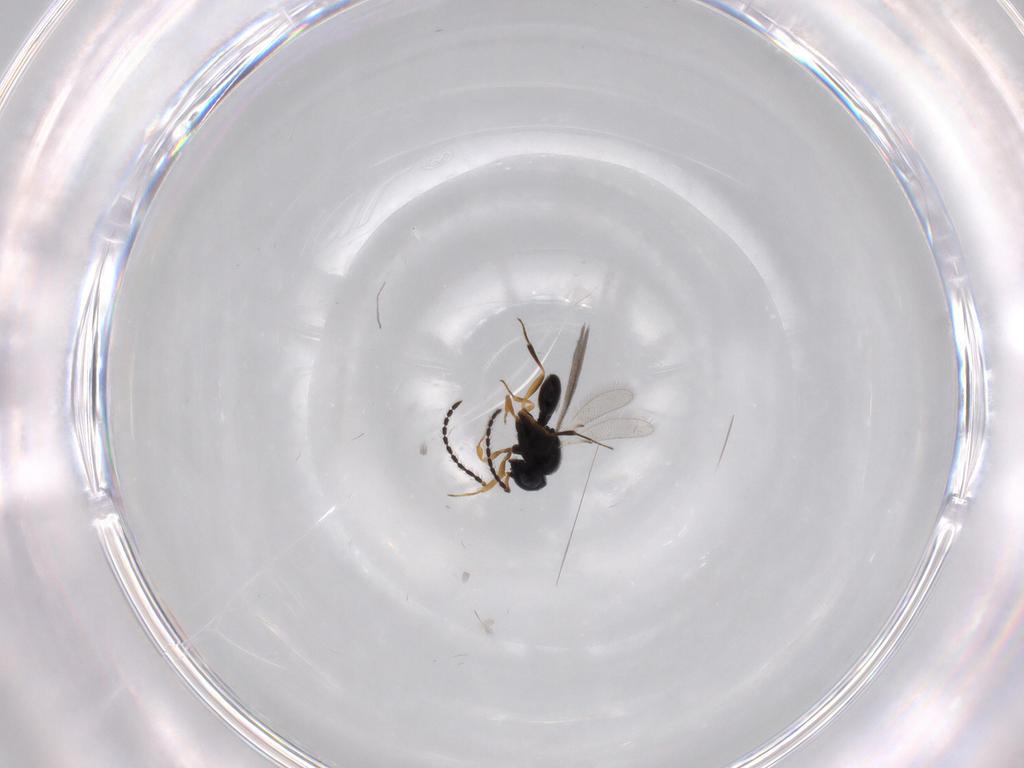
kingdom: Animalia
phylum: Arthropoda
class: Insecta
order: Hymenoptera
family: Scelionidae
